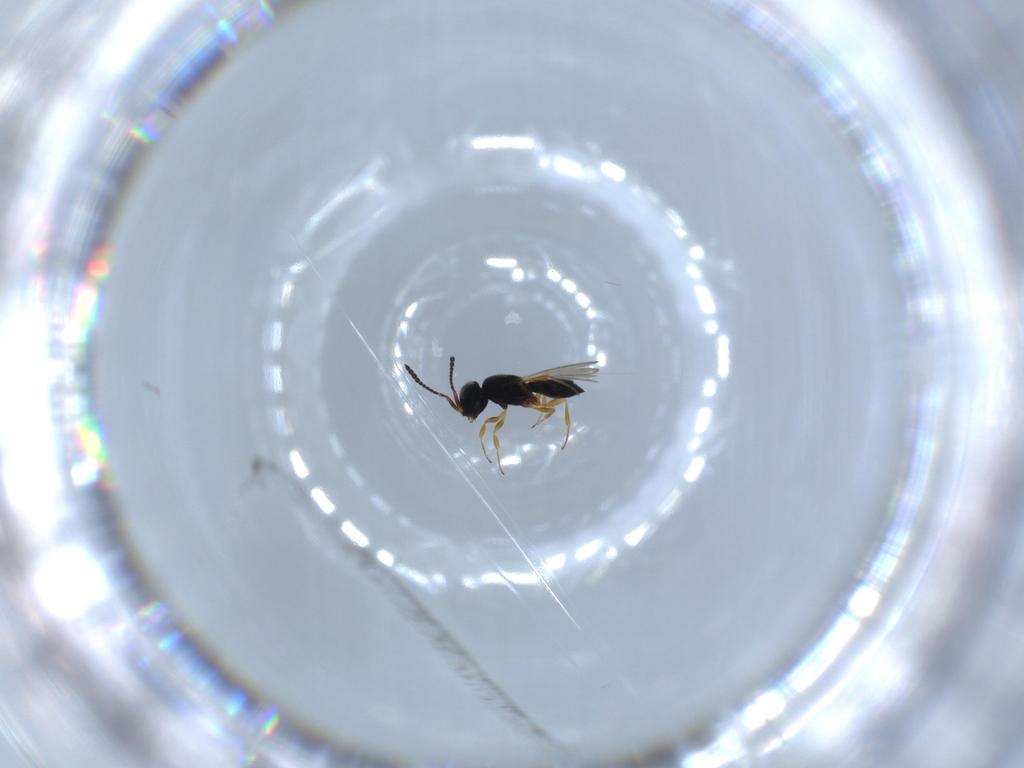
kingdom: Animalia
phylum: Arthropoda
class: Insecta
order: Hymenoptera
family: Scelionidae
